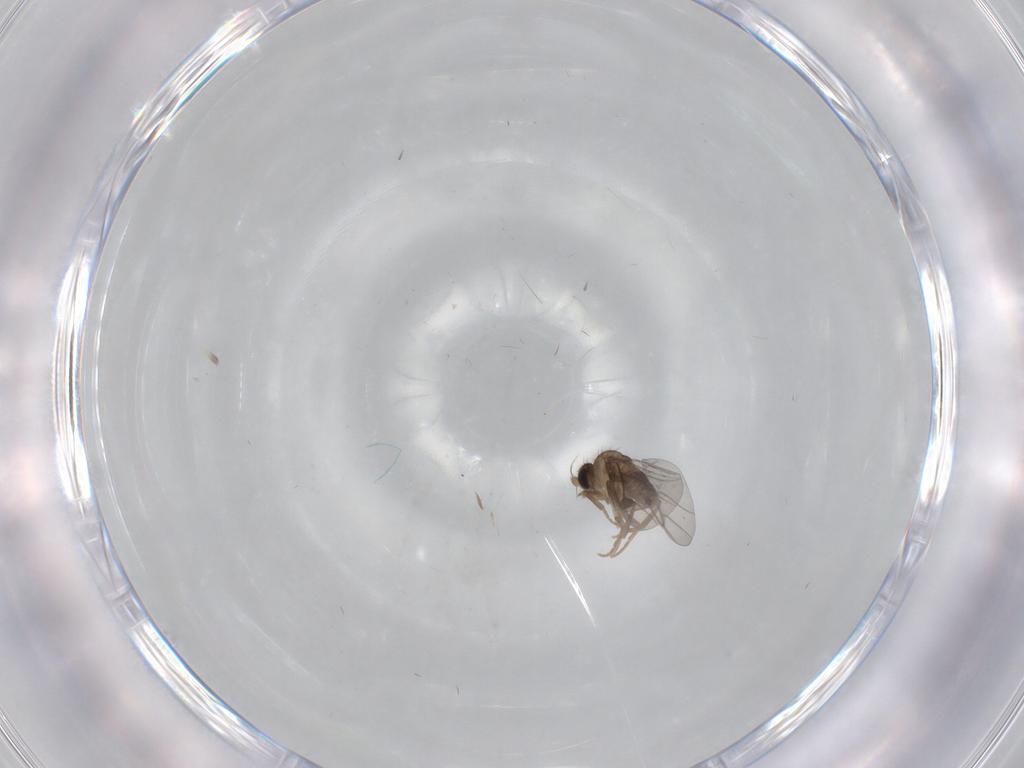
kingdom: Animalia
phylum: Arthropoda
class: Insecta
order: Diptera
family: Cecidomyiidae
